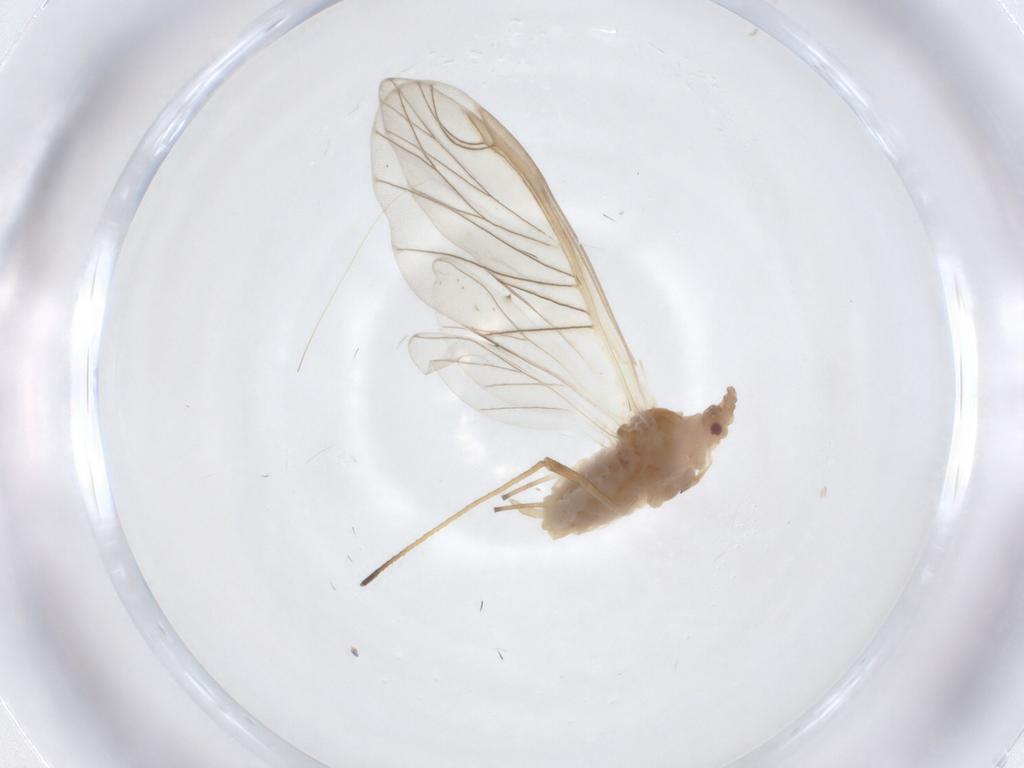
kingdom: Animalia
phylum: Arthropoda
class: Insecta
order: Hemiptera
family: Aphididae
